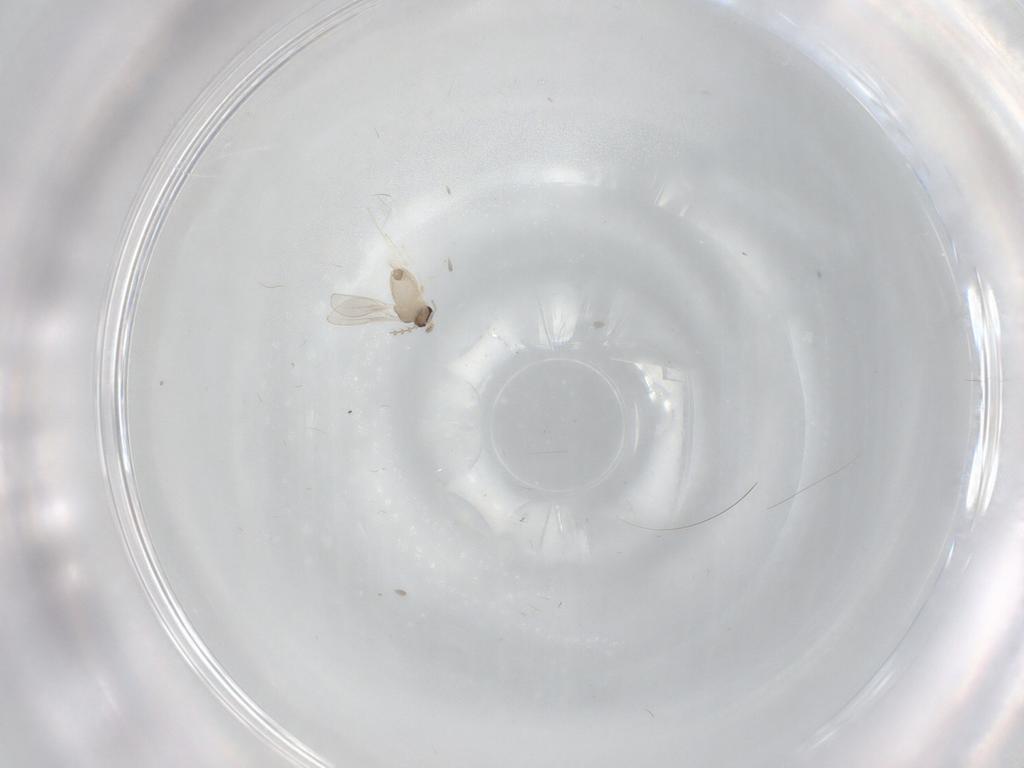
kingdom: Animalia
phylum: Arthropoda
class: Insecta
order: Diptera
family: Cecidomyiidae
